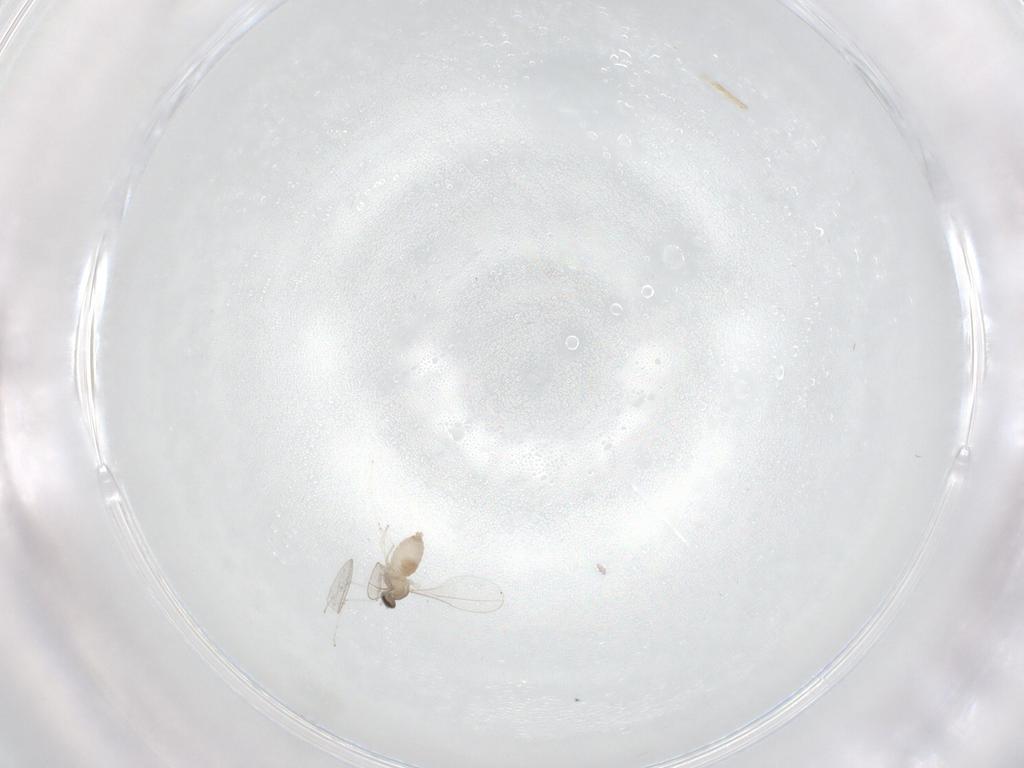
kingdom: Animalia
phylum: Arthropoda
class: Insecta
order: Diptera
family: Cecidomyiidae
